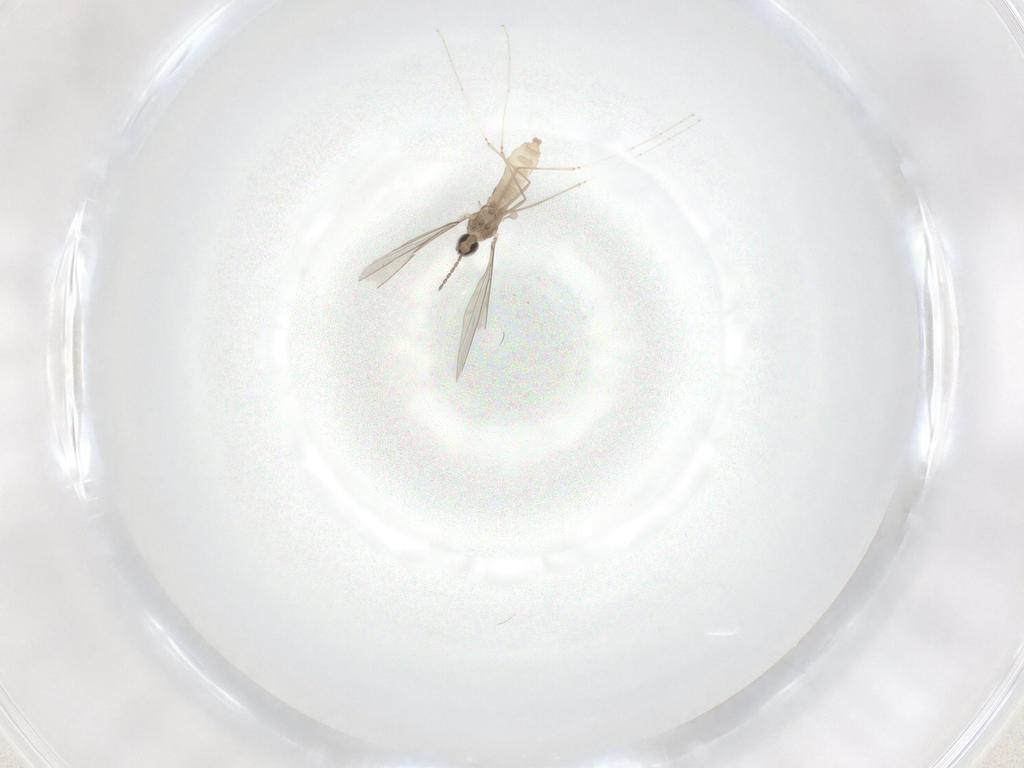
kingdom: Animalia
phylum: Arthropoda
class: Insecta
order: Diptera
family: Cecidomyiidae
